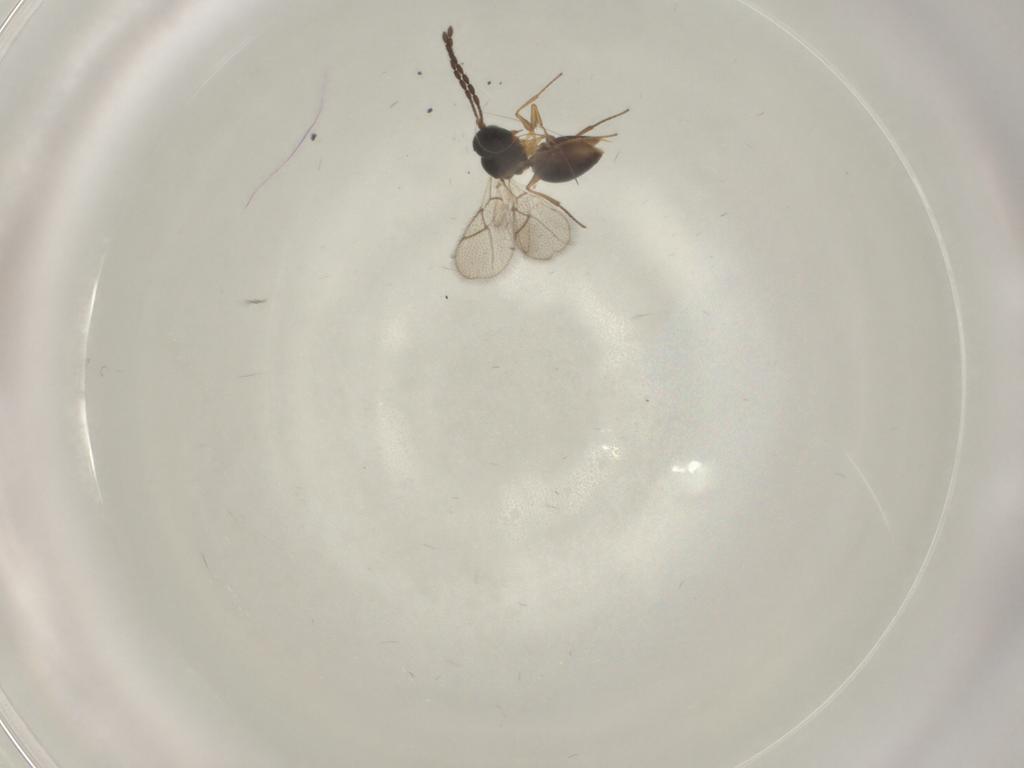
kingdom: Animalia
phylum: Arthropoda
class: Insecta
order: Hymenoptera
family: Figitidae
